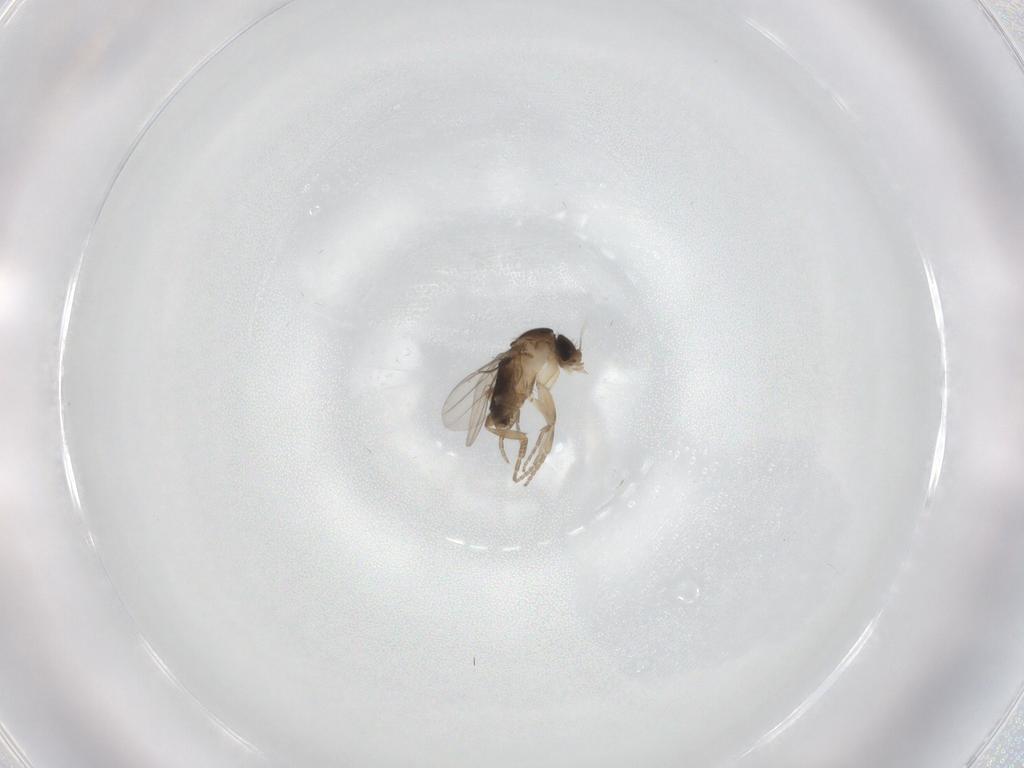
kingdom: Animalia
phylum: Arthropoda
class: Insecta
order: Diptera
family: Phoridae
